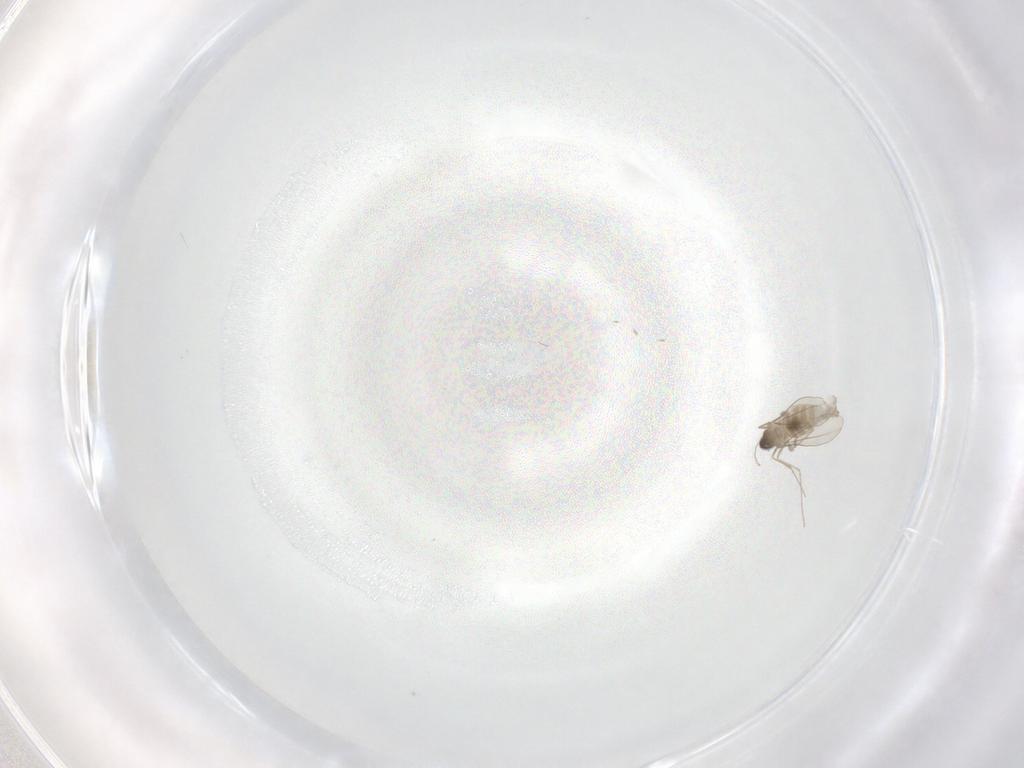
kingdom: Animalia
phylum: Arthropoda
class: Insecta
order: Diptera
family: Cecidomyiidae
